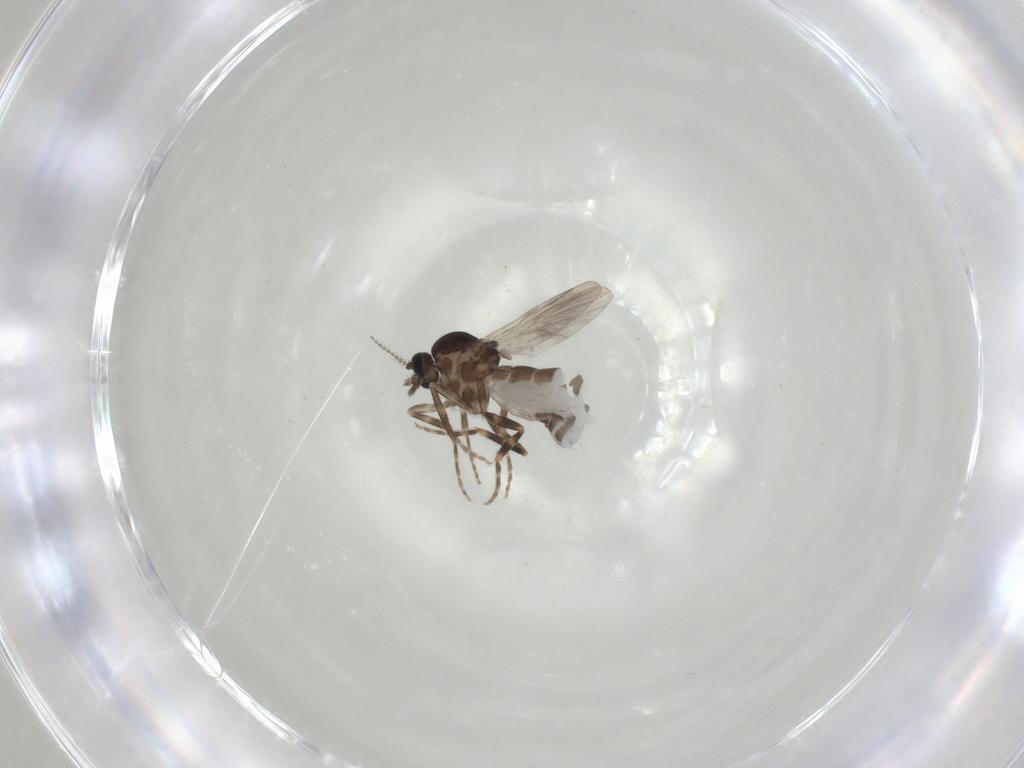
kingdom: Animalia
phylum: Arthropoda
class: Insecta
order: Diptera
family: Ceratopogonidae
